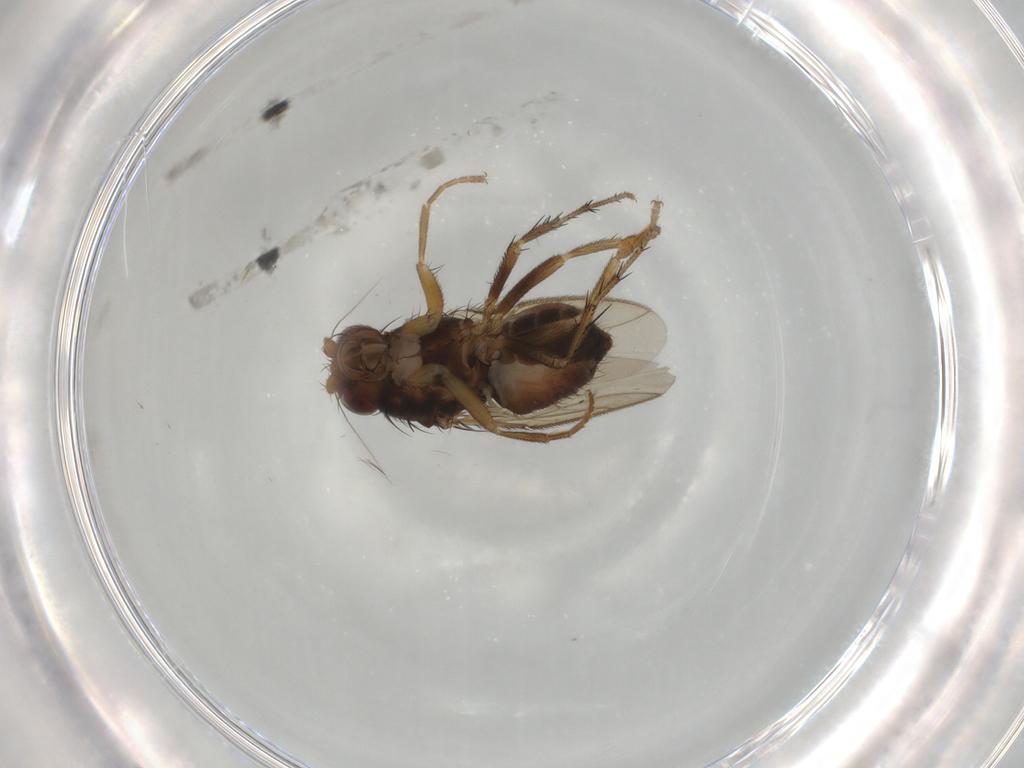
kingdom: Animalia
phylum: Arthropoda
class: Insecta
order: Diptera
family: Sphaeroceridae
